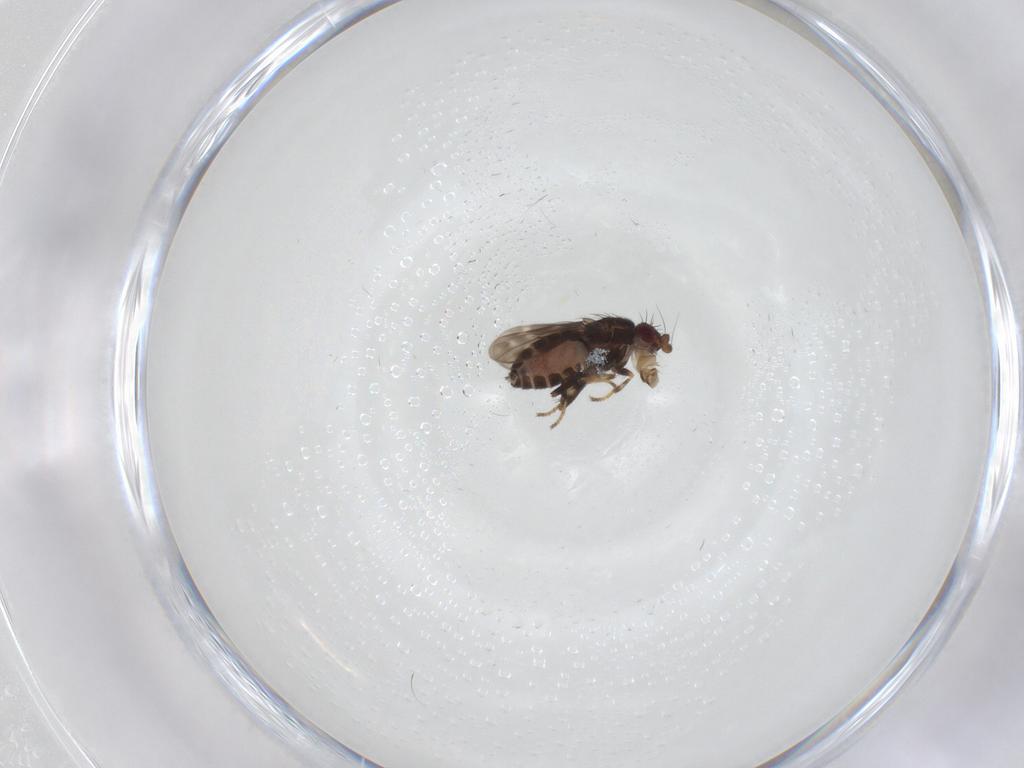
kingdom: Animalia
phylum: Arthropoda
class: Insecta
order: Diptera
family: Sphaeroceridae
